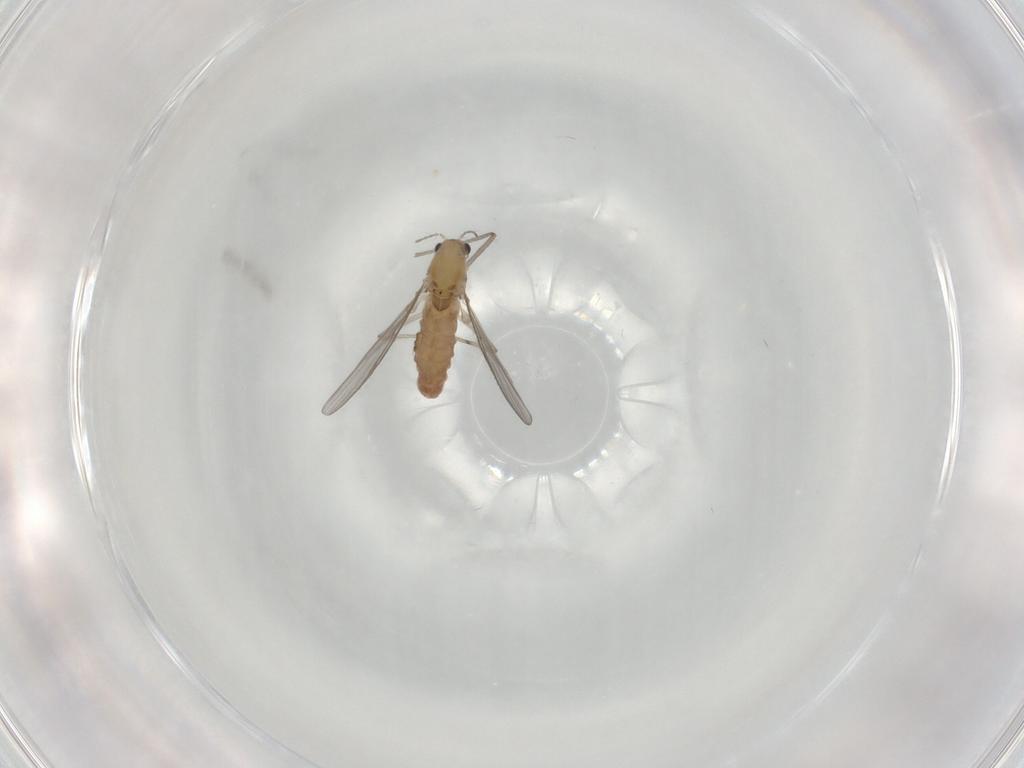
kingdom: Animalia
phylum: Arthropoda
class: Insecta
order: Diptera
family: Chironomidae
